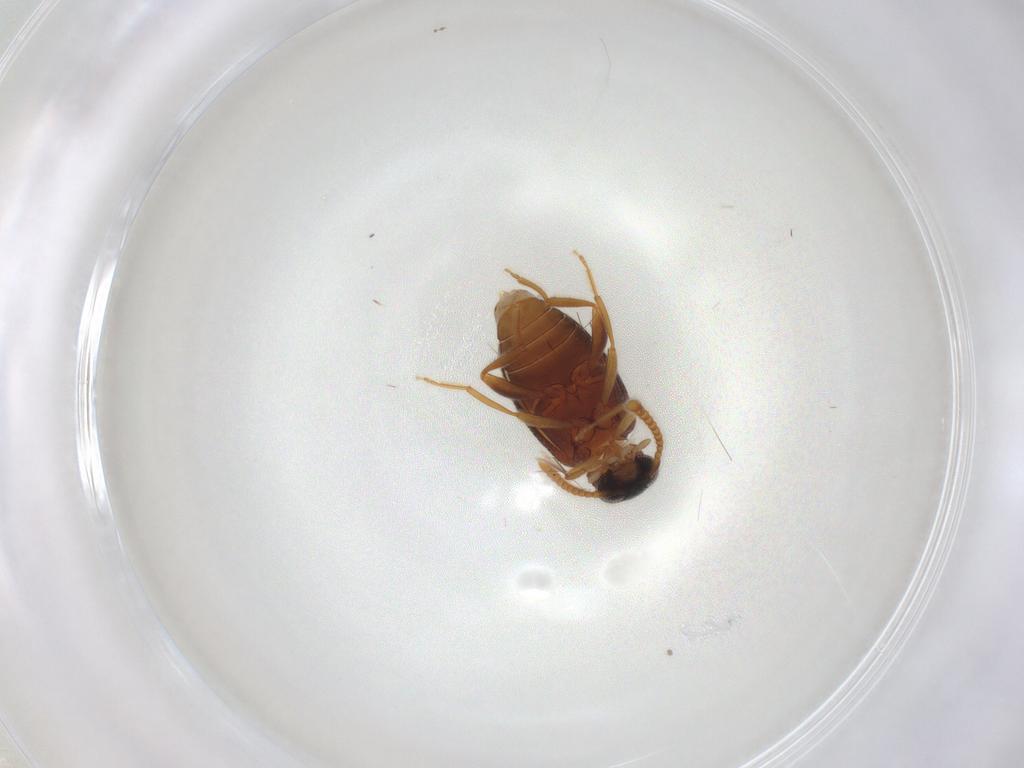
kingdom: Animalia
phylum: Arthropoda
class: Insecta
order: Coleoptera
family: Aderidae
